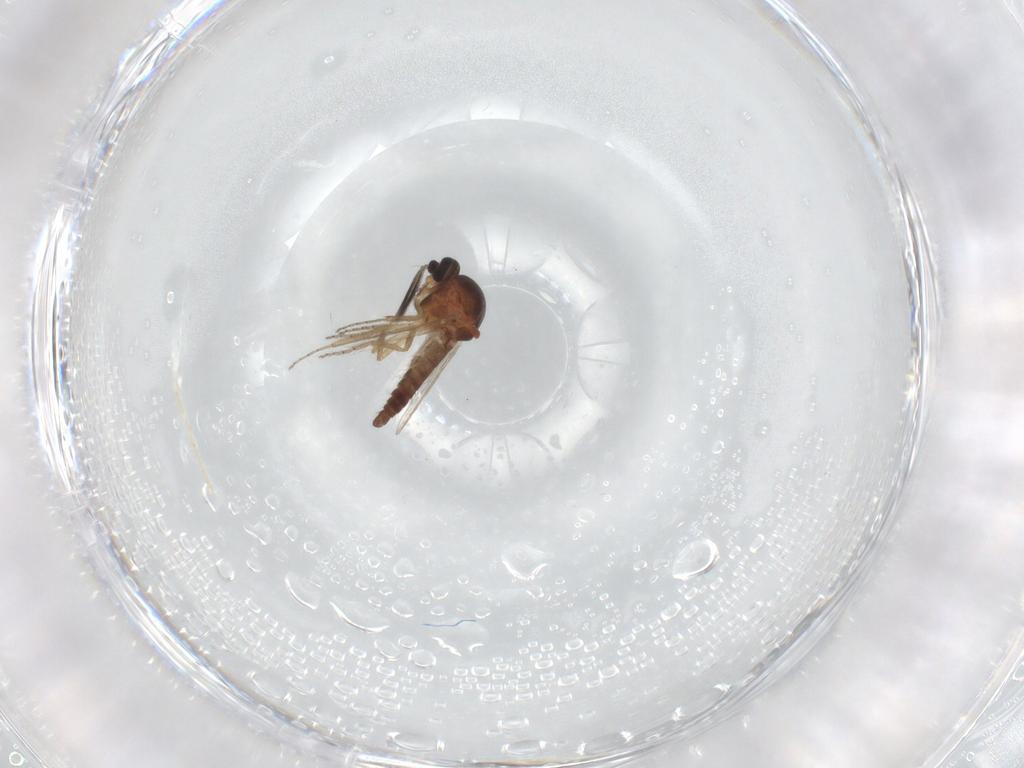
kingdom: Animalia
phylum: Arthropoda
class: Insecta
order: Diptera
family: Ceratopogonidae
